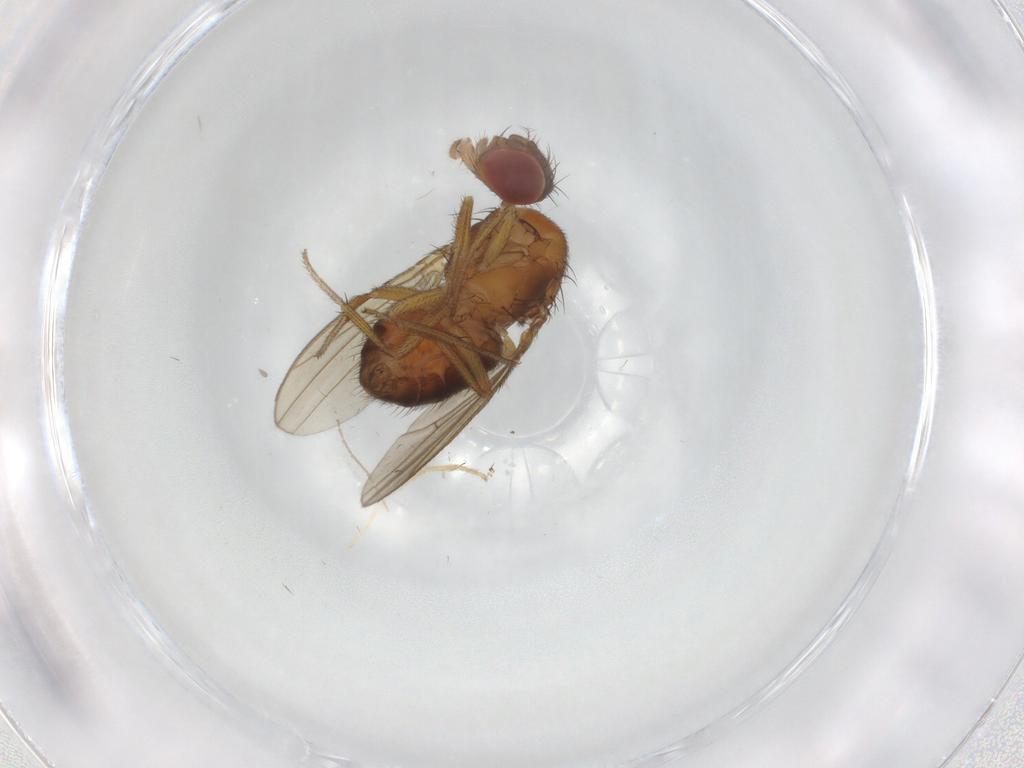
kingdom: Animalia
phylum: Arthropoda
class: Insecta
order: Diptera
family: Drosophilidae
